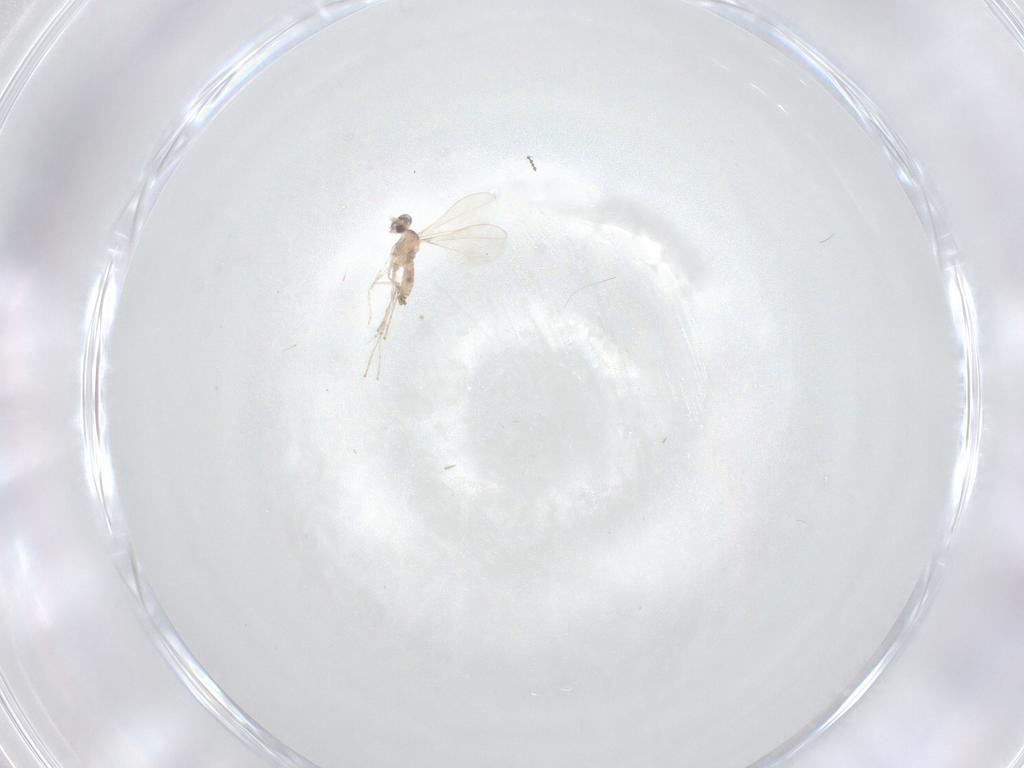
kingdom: Animalia
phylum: Arthropoda
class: Insecta
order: Diptera
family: Cecidomyiidae
